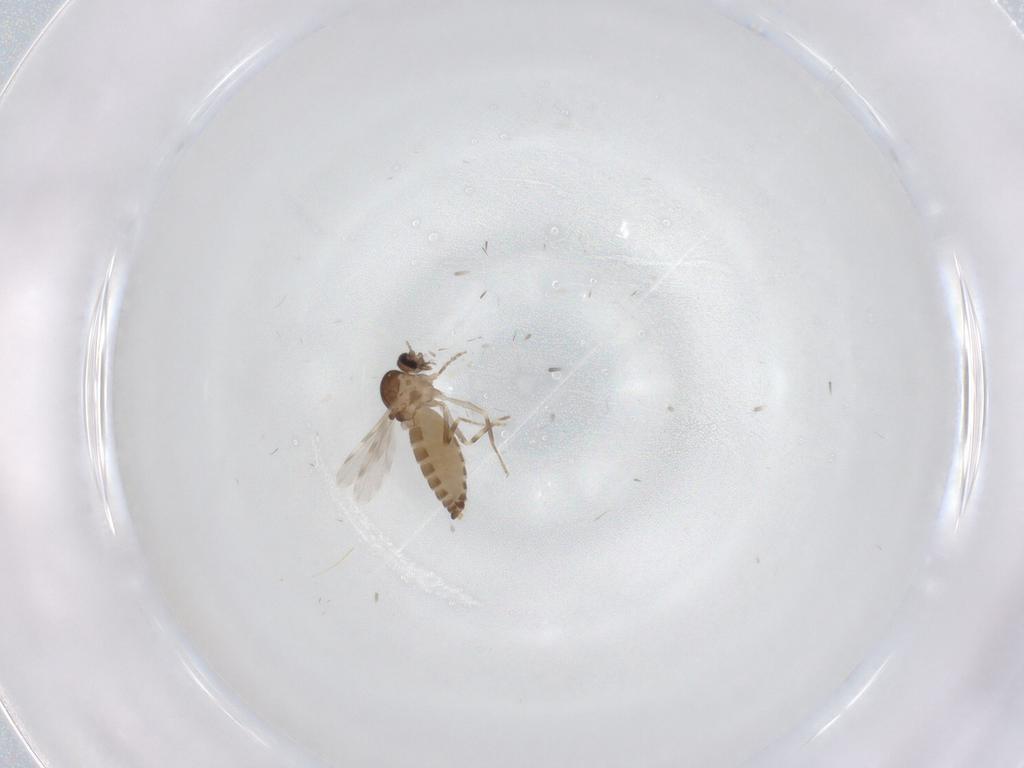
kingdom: Animalia
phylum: Arthropoda
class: Insecta
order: Diptera
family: Ceratopogonidae
